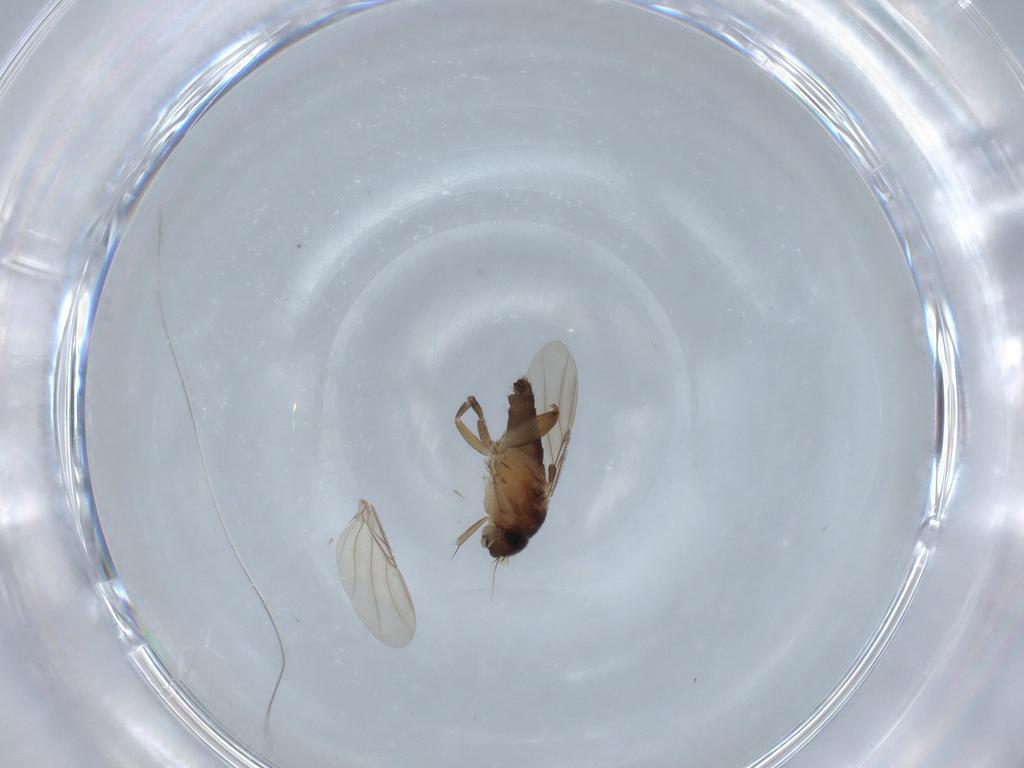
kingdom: Animalia
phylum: Arthropoda
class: Insecta
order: Diptera
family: Phoridae
